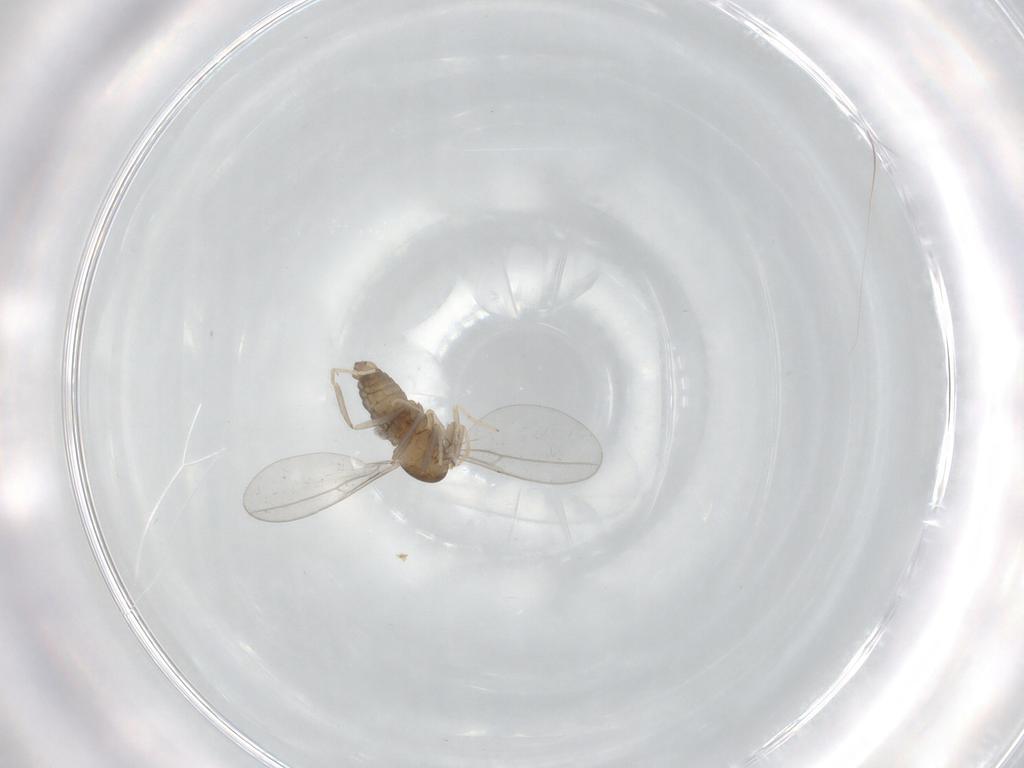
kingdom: Animalia
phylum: Arthropoda
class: Insecta
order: Diptera
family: Cecidomyiidae
